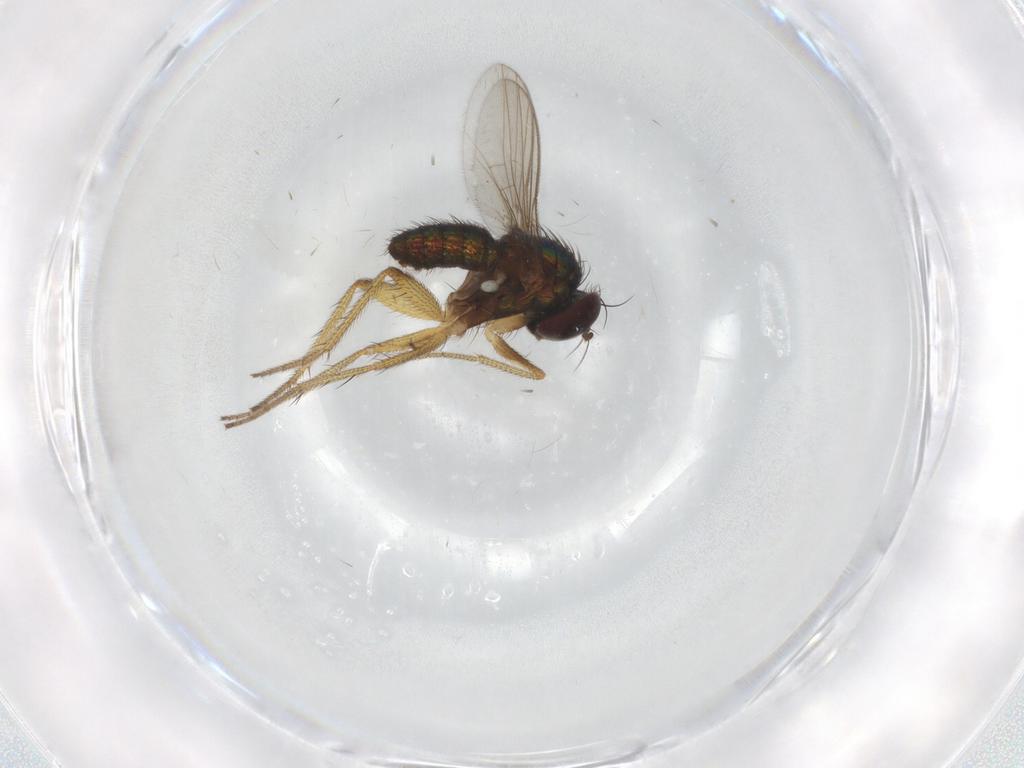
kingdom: Animalia
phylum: Arthropoda
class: Insecta
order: Diptera
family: Dolichopodidae
